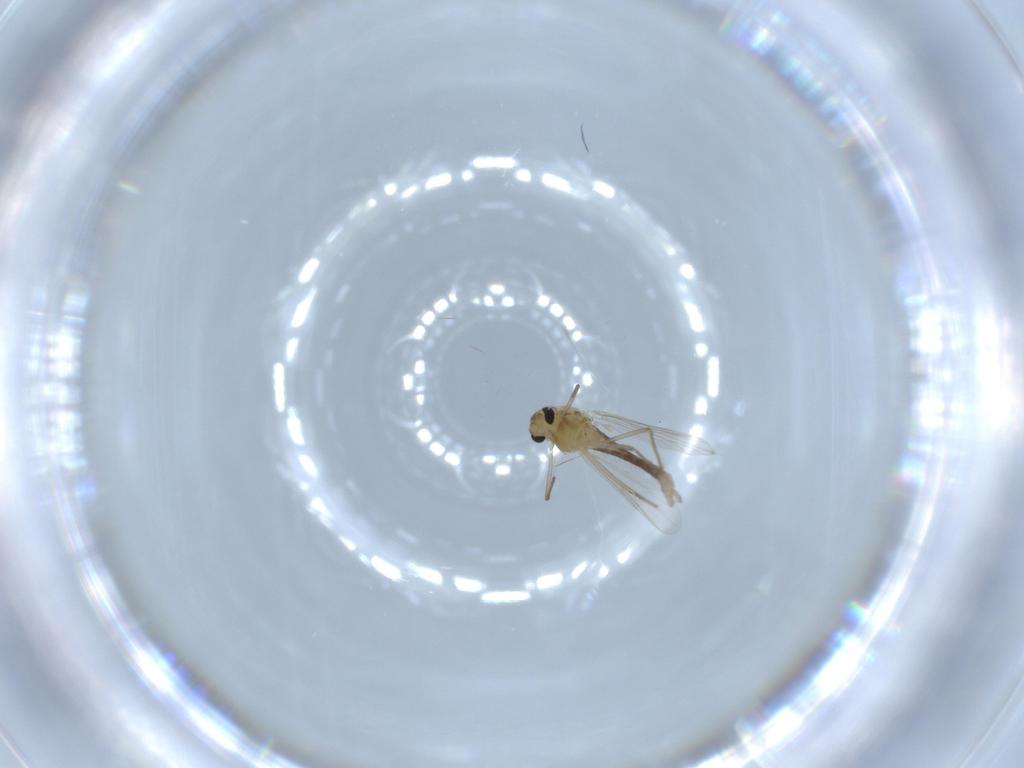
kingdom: Animalia
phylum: Arthropoda
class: Insecta
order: Diptera
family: Chironomidae
